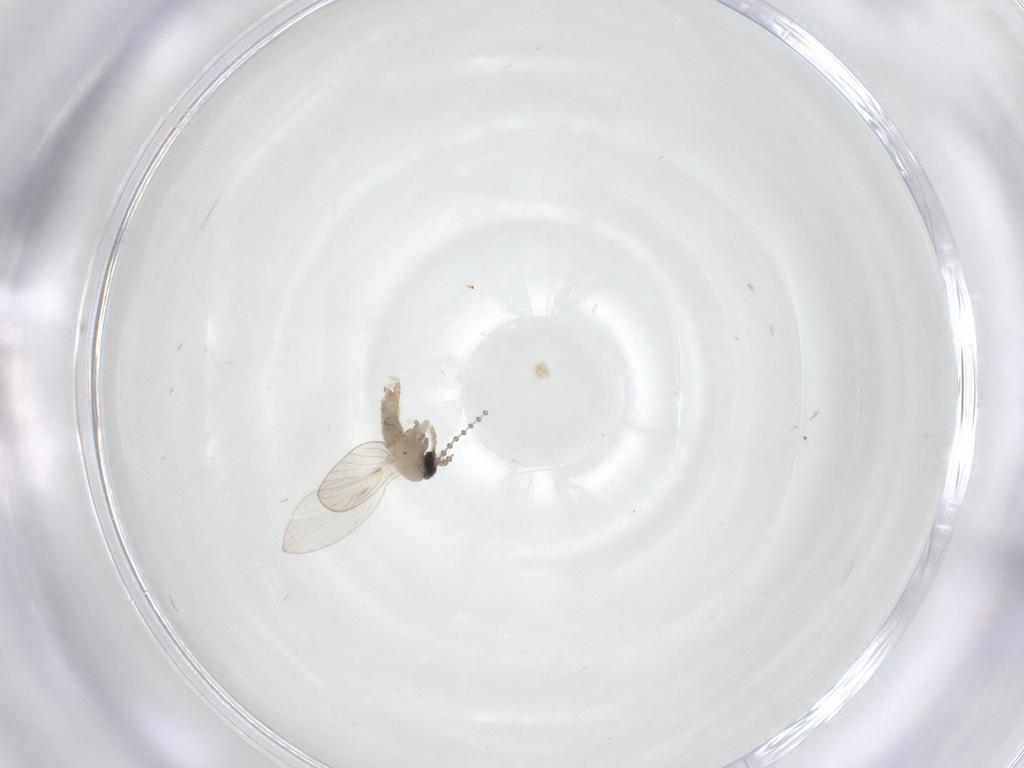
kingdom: Animalia
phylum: Arthropoda
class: Insecta
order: Diptera
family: Psychodidae
